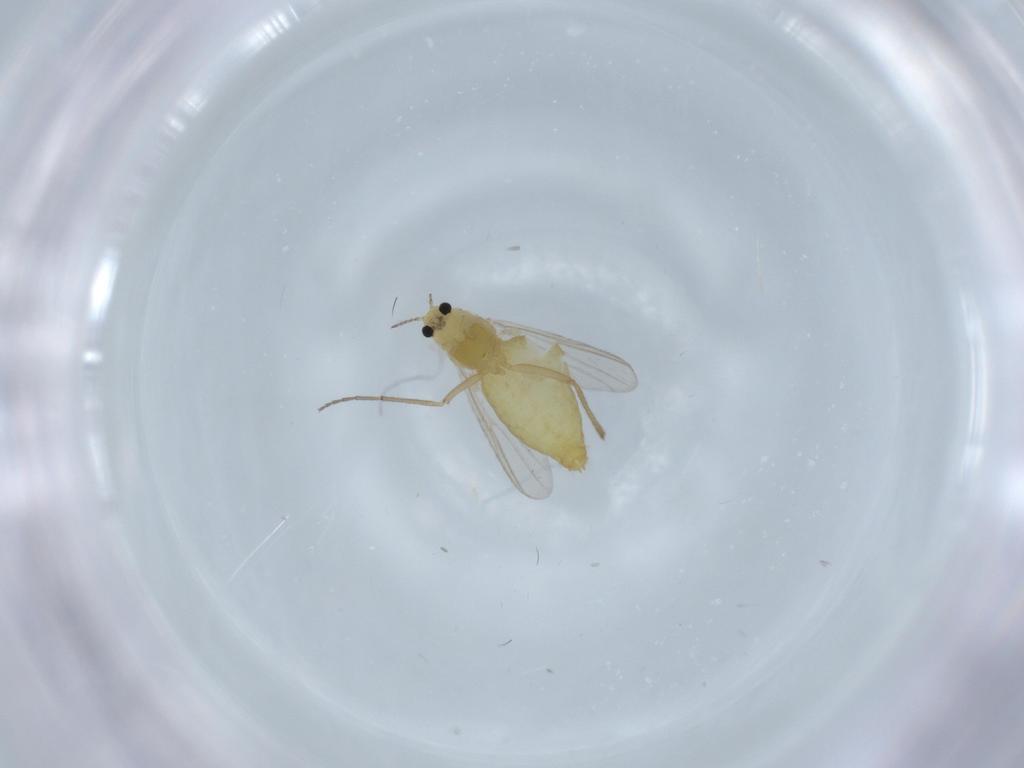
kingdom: Animalia
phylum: Arthropoda
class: Insecta
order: Diptera
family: Chironomidae
